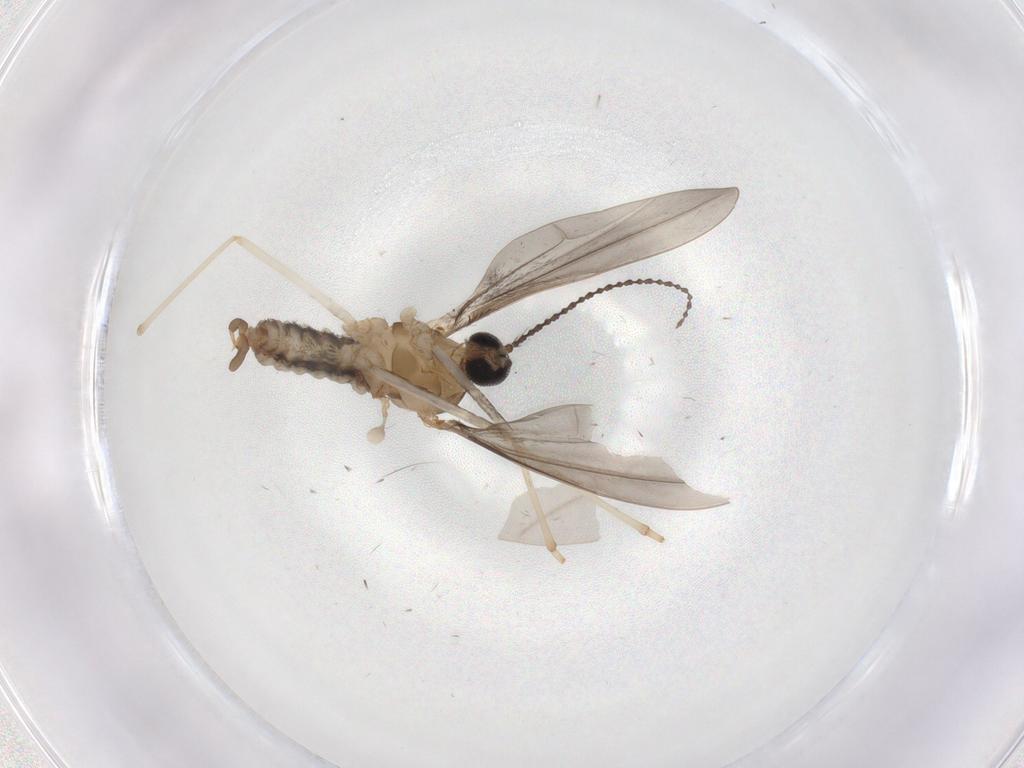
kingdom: Animalia
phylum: Arthropoda
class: Insecta
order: Diptera
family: Cecidomyiidae
